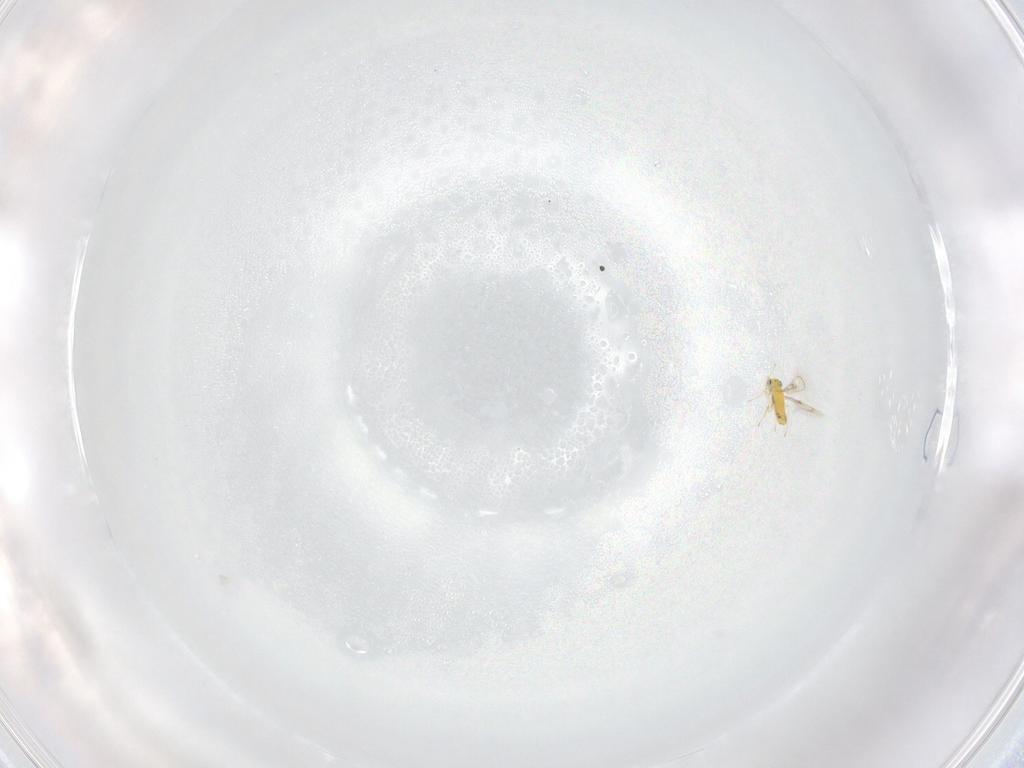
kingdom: Animalia
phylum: Arthropoda
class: Insecta
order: Hymenoptera
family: Trichogrammatidae
